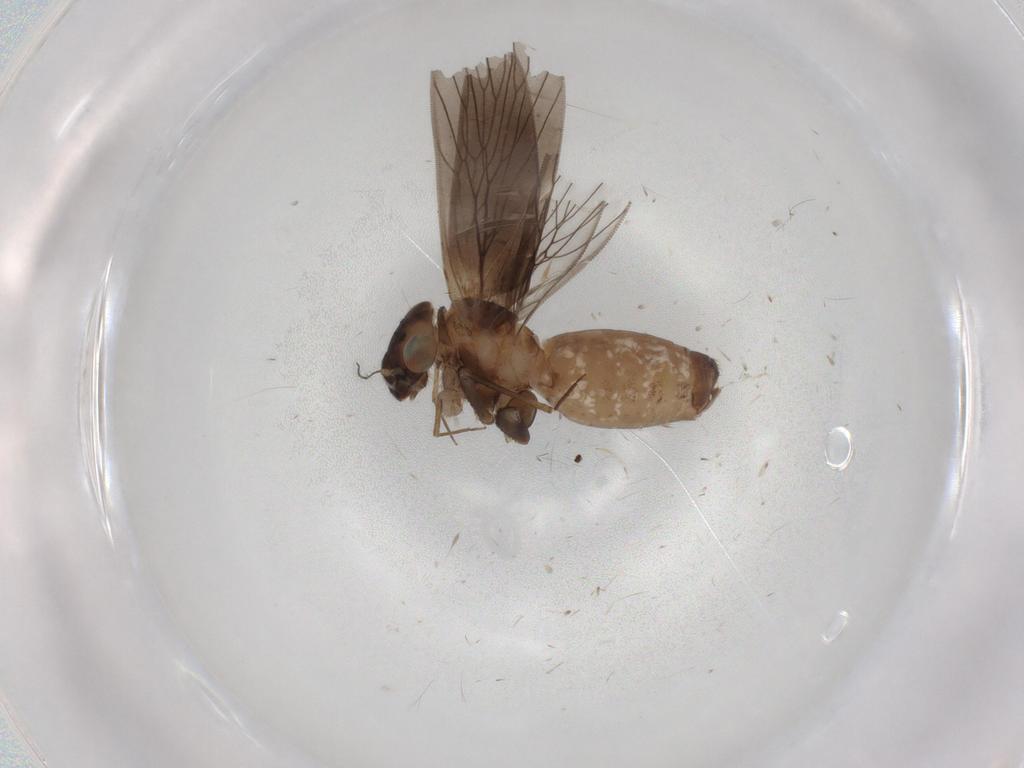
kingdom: Animalia
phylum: Arthropoda
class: Insecta
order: Psocodea
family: Lepidopsocidae
